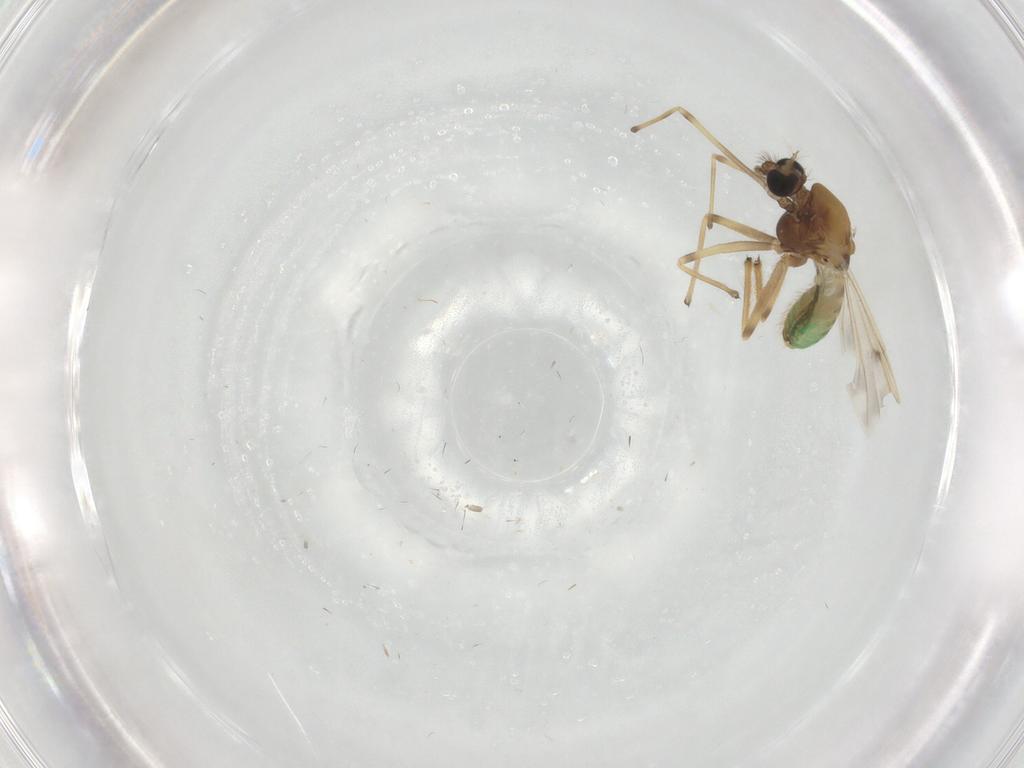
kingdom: Animalia
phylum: Arthropoda
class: Insecta
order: Diptera
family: Chironomidae
